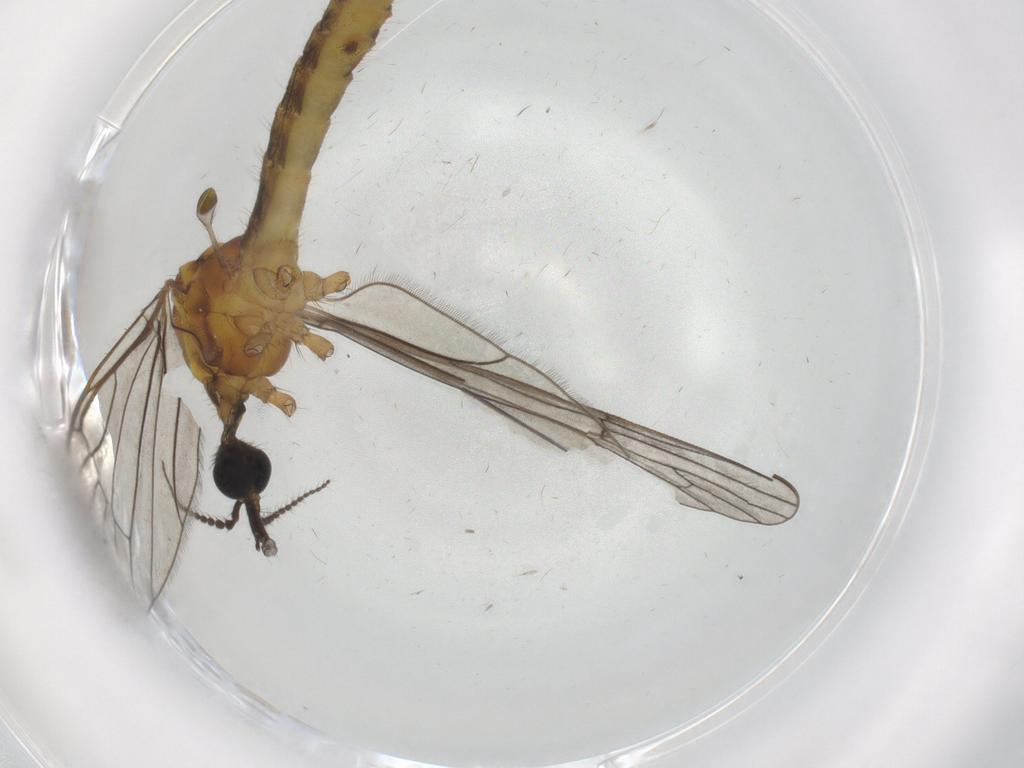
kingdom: Animalia
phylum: Arthropoda
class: Insecta
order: Diptera
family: Limoniidae
